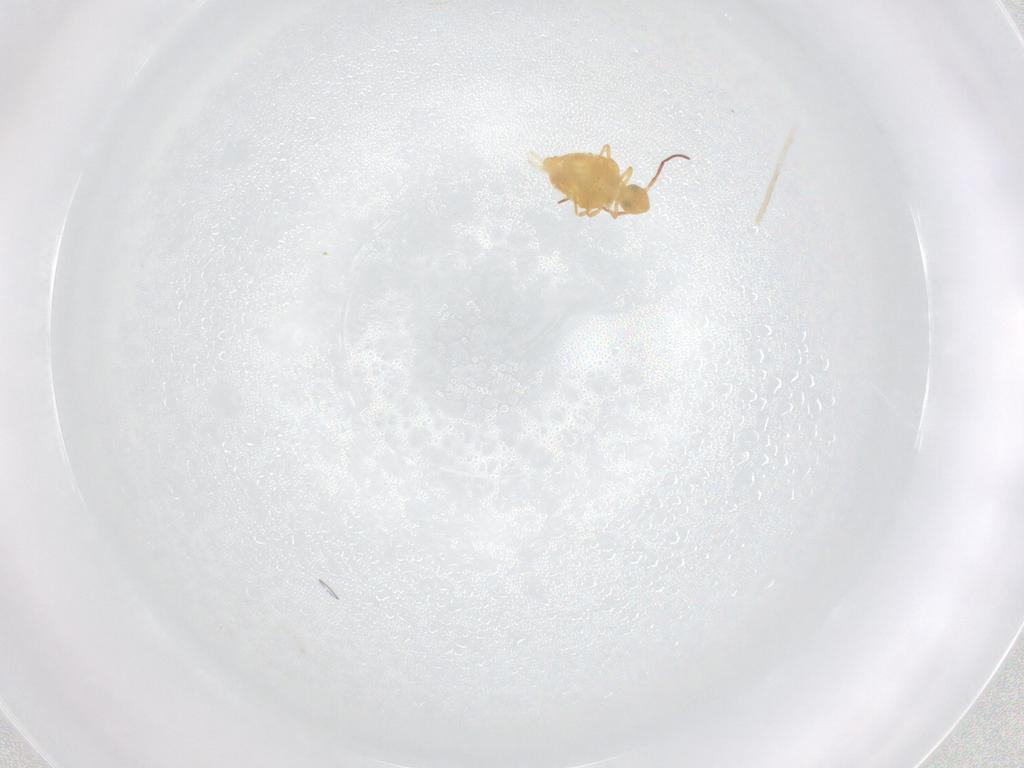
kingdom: Animalia
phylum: Arthropoda
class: Collembola
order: Symphypleona
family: Bourletiellidae
